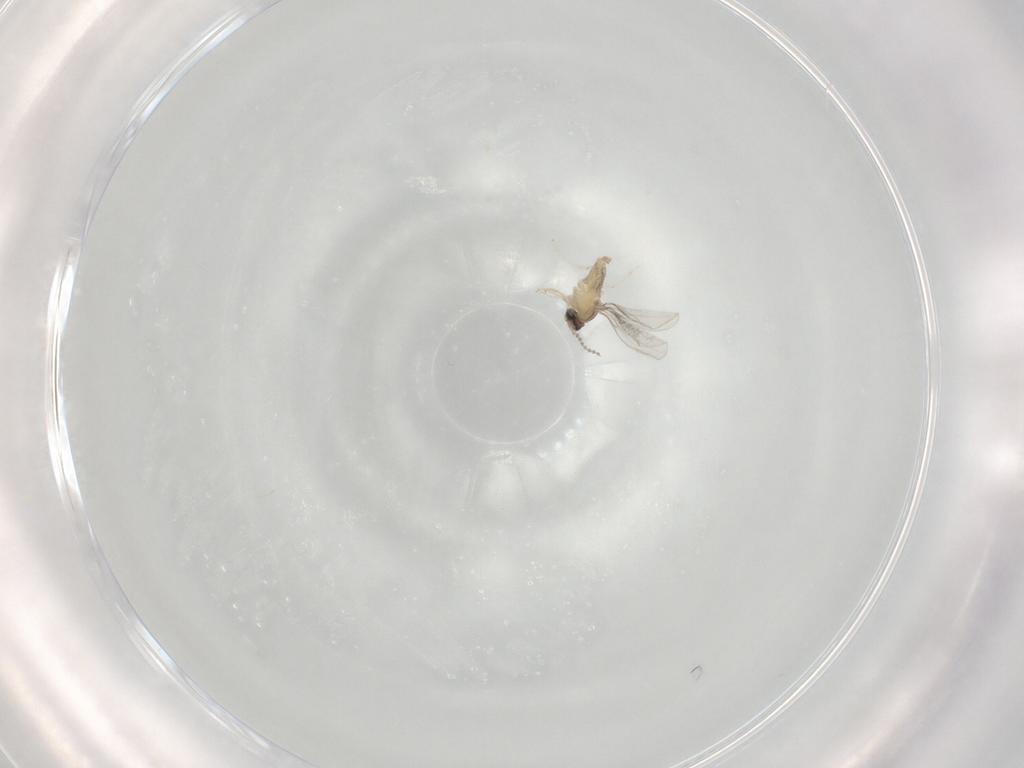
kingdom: Animalia
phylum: Arthropoda
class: Insecta
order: Diptera
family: Cecidomyiidae
